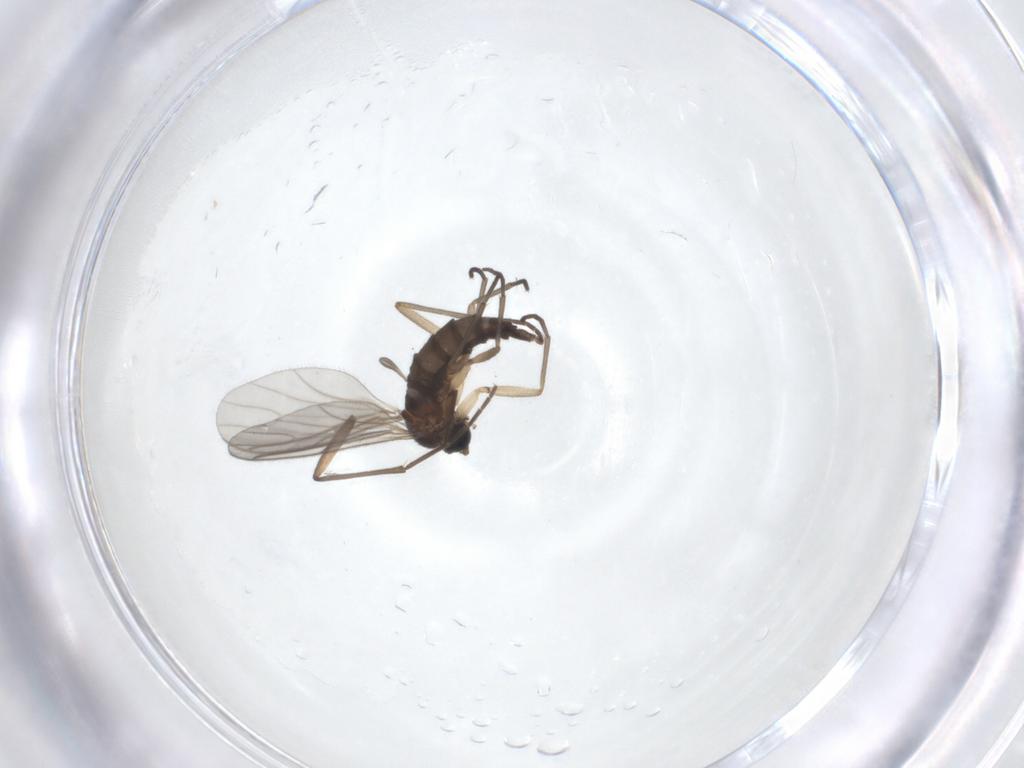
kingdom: Animalia
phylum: Arthropoda
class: Insecta
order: Diptera
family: Sciaridae
